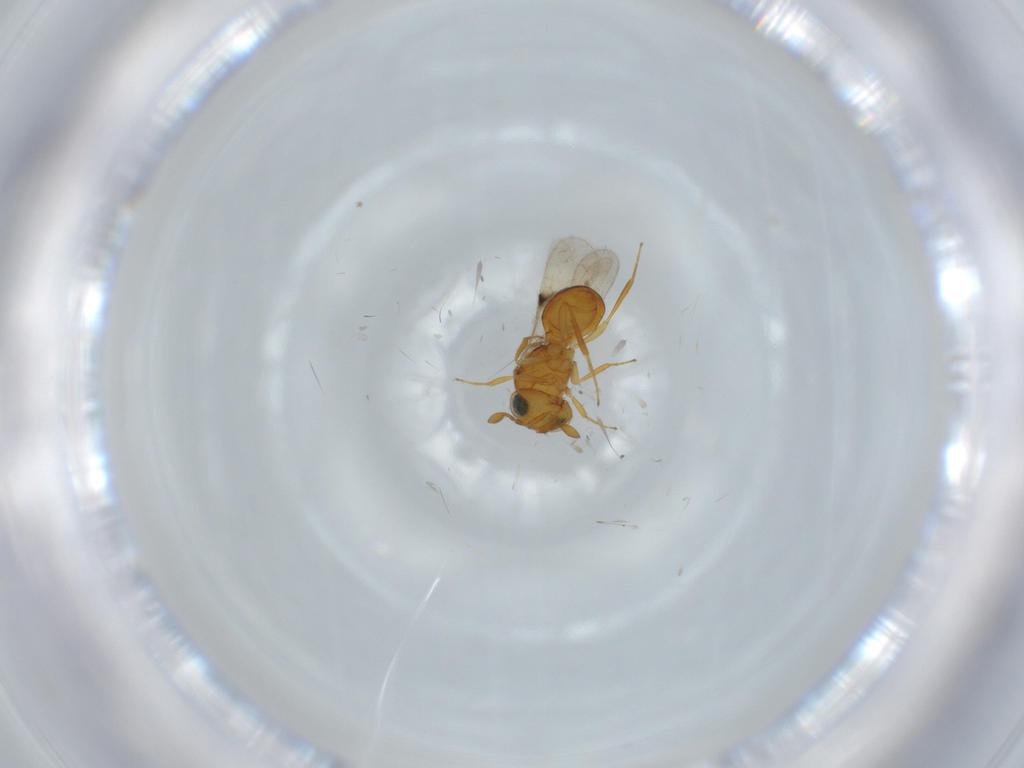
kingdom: Animalia
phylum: Arthropoda
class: Insecta
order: Hymenoptera
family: Scelionidae
